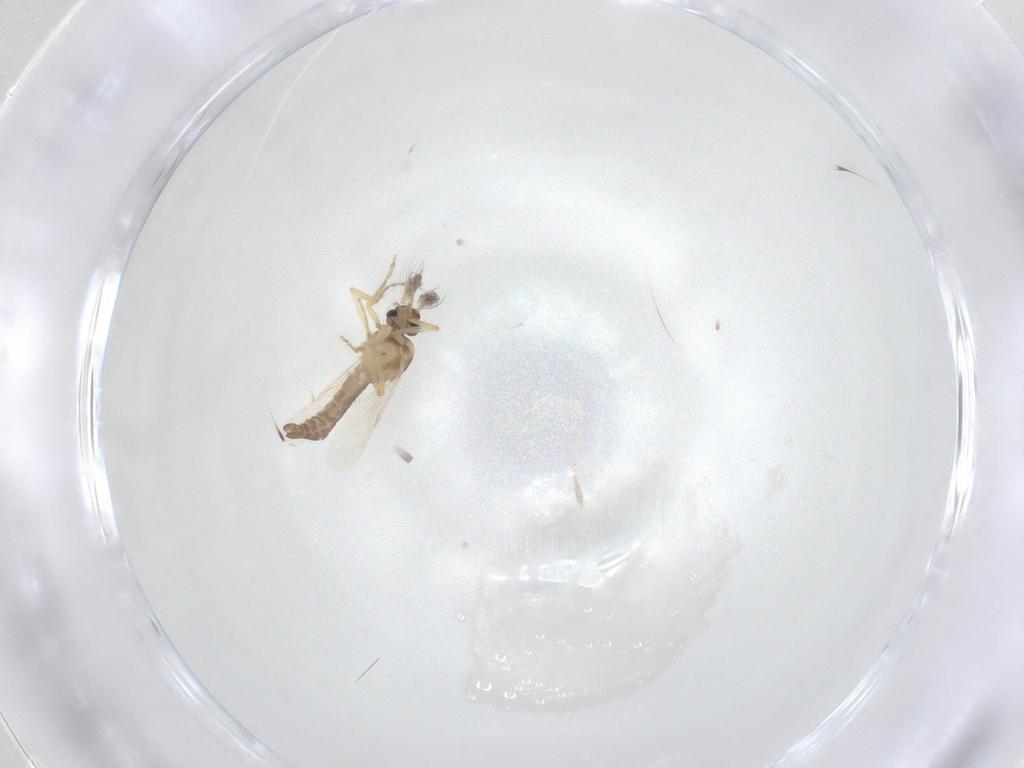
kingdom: Animalia
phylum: Arthropoda
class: Insecta
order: Diptera
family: Ceratopogonidae
